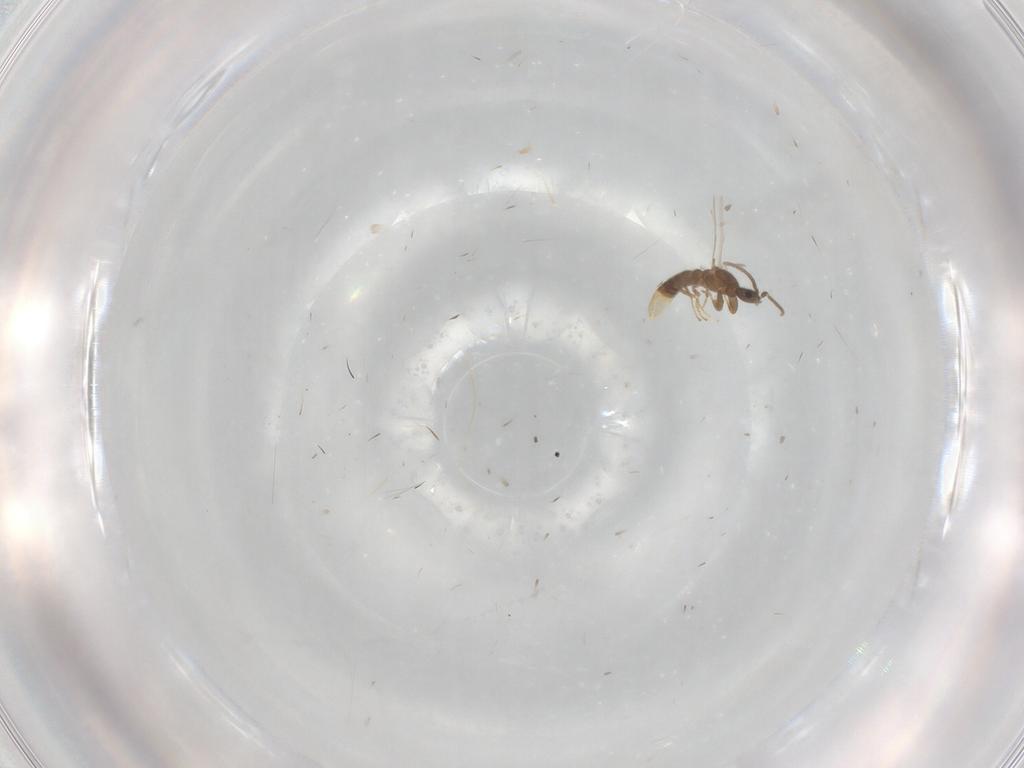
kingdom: Animalia
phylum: Arthropoda
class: Insecta
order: Hymenoptera
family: Formicidae
